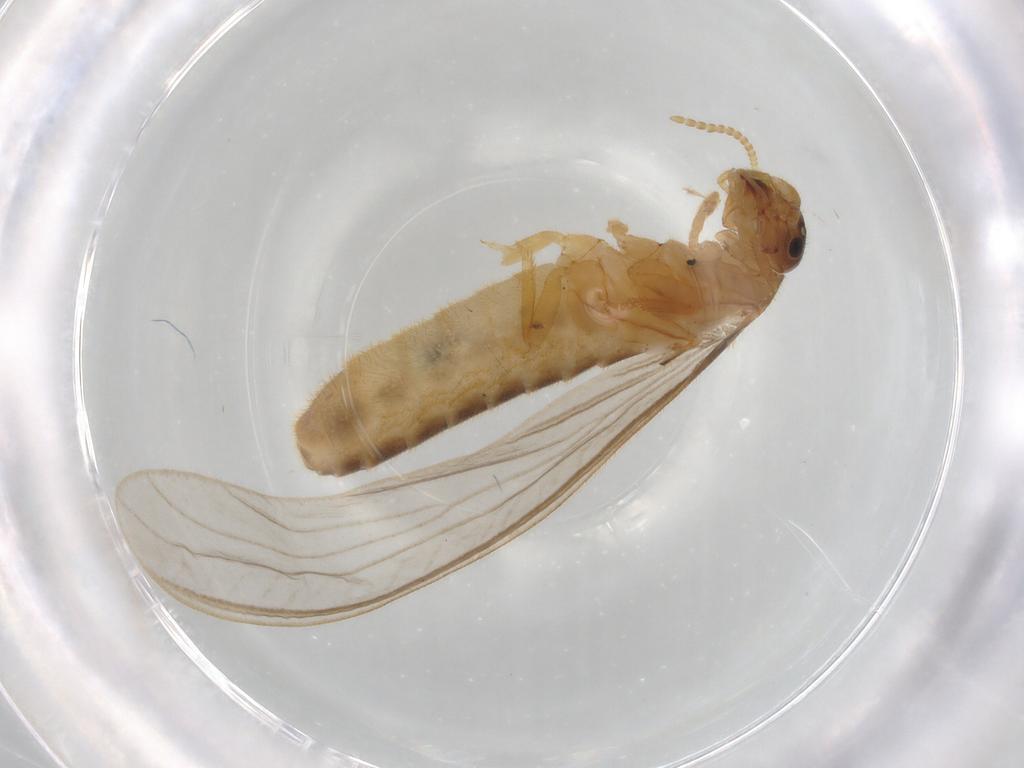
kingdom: Animalia
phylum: Arthropoda
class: Insecta
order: Blattodea
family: Termitidae
